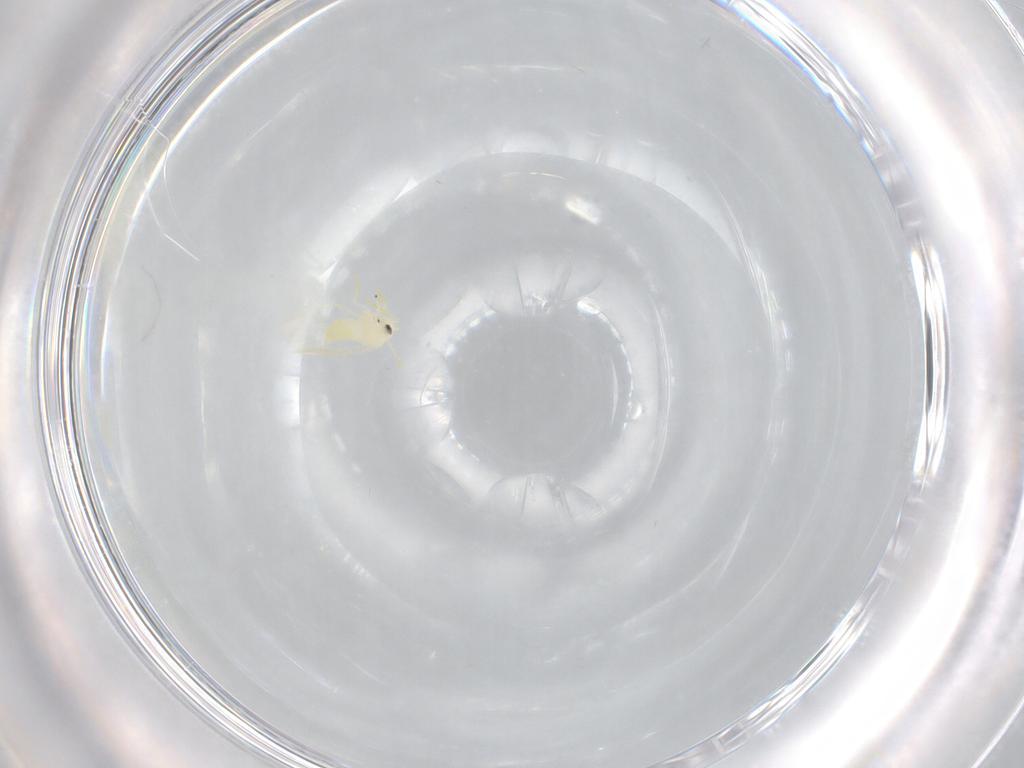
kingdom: Animalia
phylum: Arthropoda
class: Insecta
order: Hemiptera
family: Aleyrodidae
